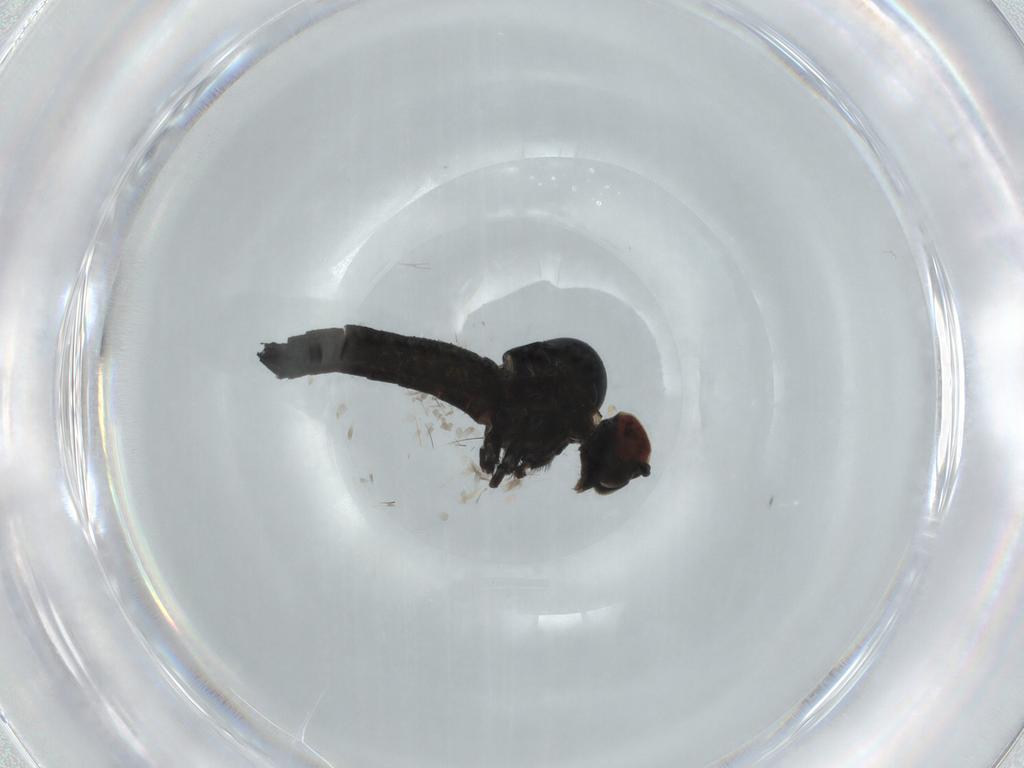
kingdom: Animalia
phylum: Arthropoda
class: Insecta
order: Diptera
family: Hybotidae
